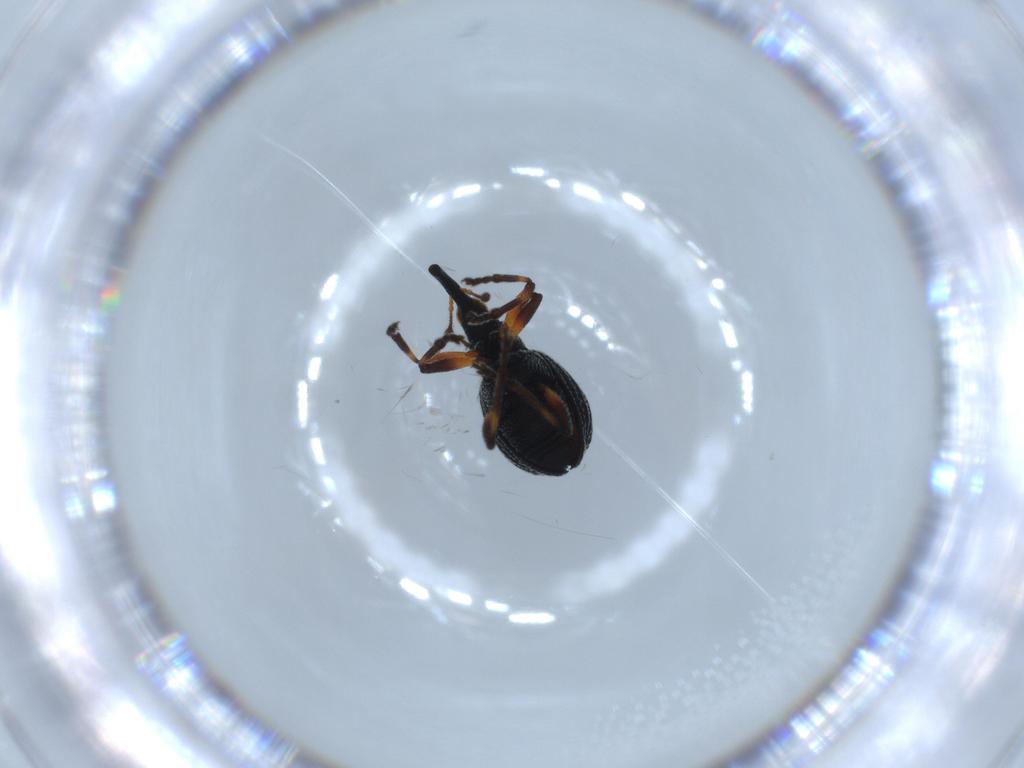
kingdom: Animalia
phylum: Arthropoda
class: Insecta
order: Coleoptera
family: Brentidae
